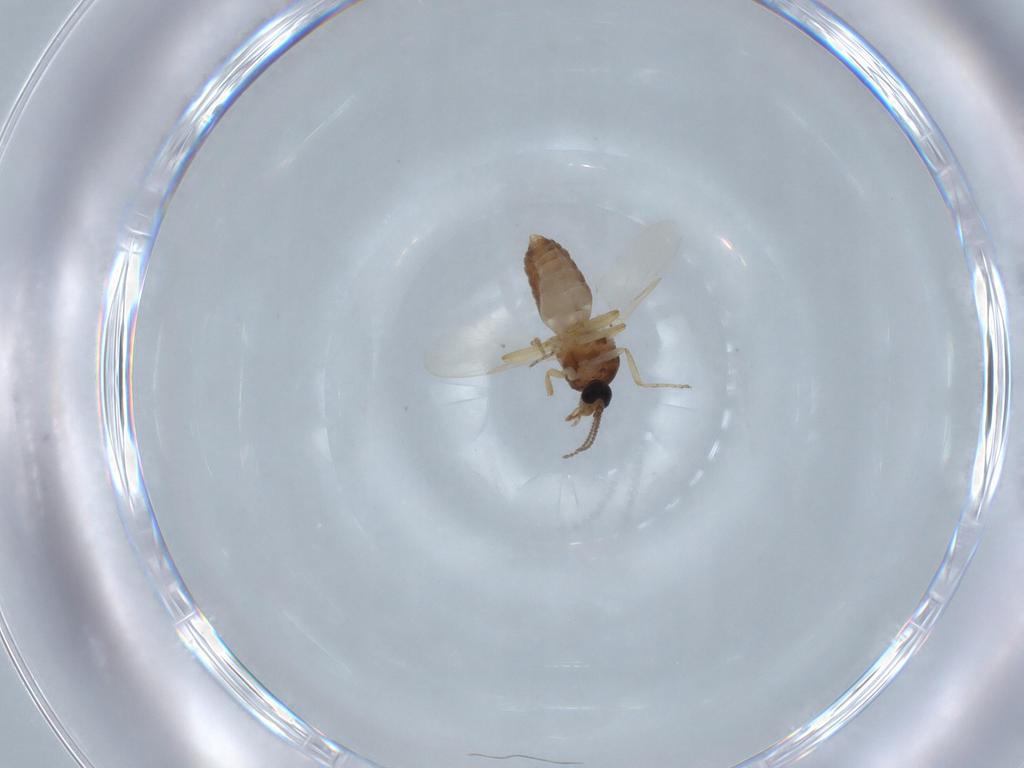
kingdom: Animalia
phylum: Arthropoda
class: Insecta
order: Diptera
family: Ceratopogonidae
